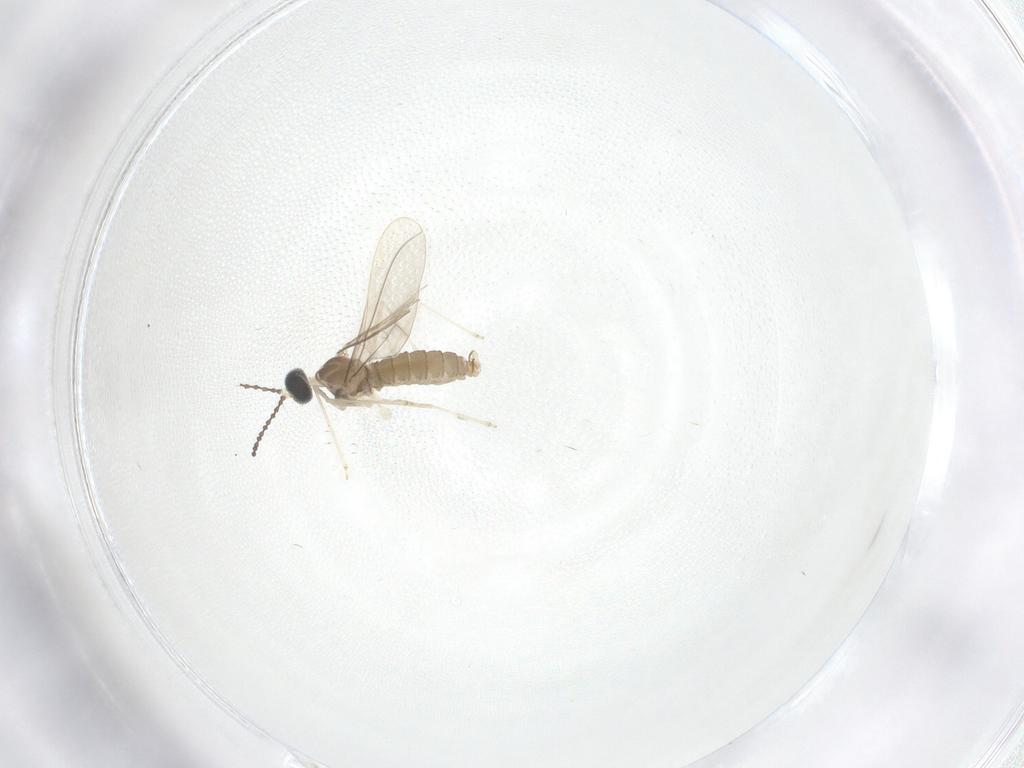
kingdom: Animalia
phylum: Arthropoda
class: Insecta
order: Diptera
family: Cecidomyiidae
